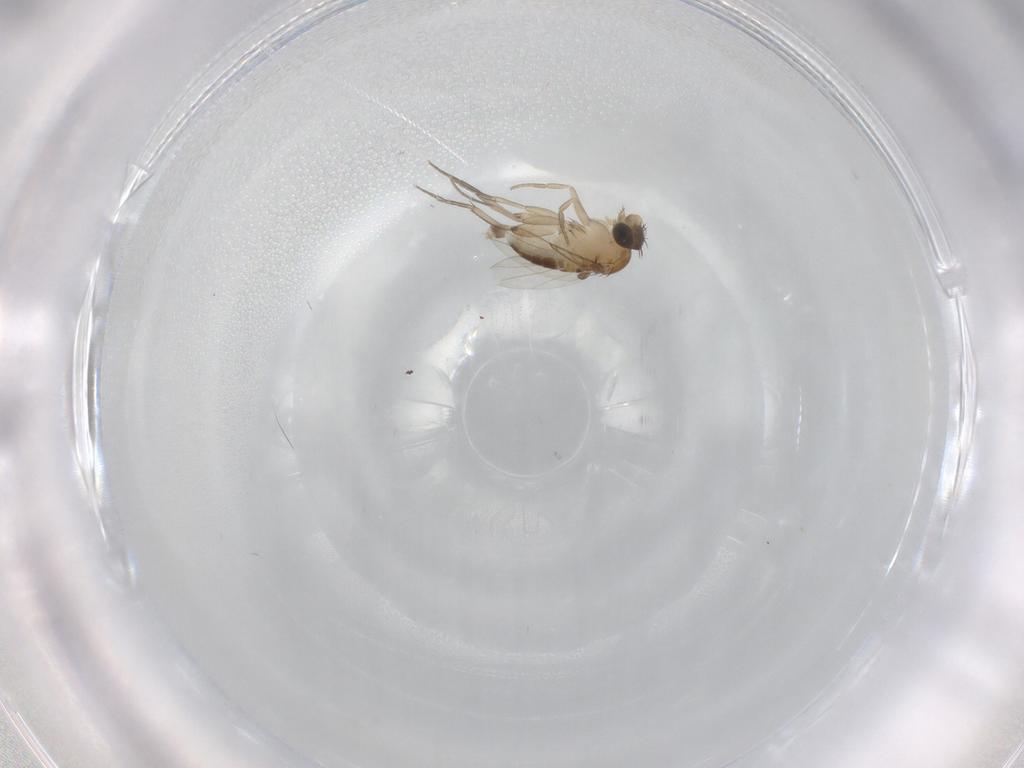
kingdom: Animalia
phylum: Arthropoda
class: Insecta
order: Diptera
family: Phoridae
